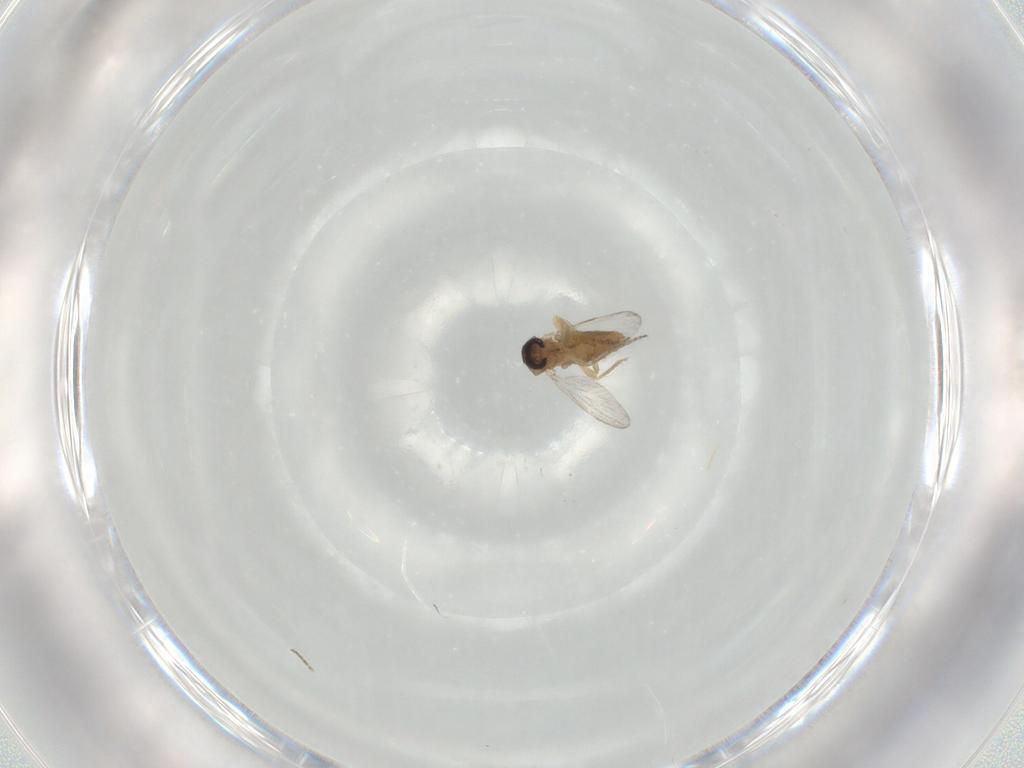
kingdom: Animalia
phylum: Arthropoda
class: Insecta
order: Diptera
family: Ceratopogonidae
